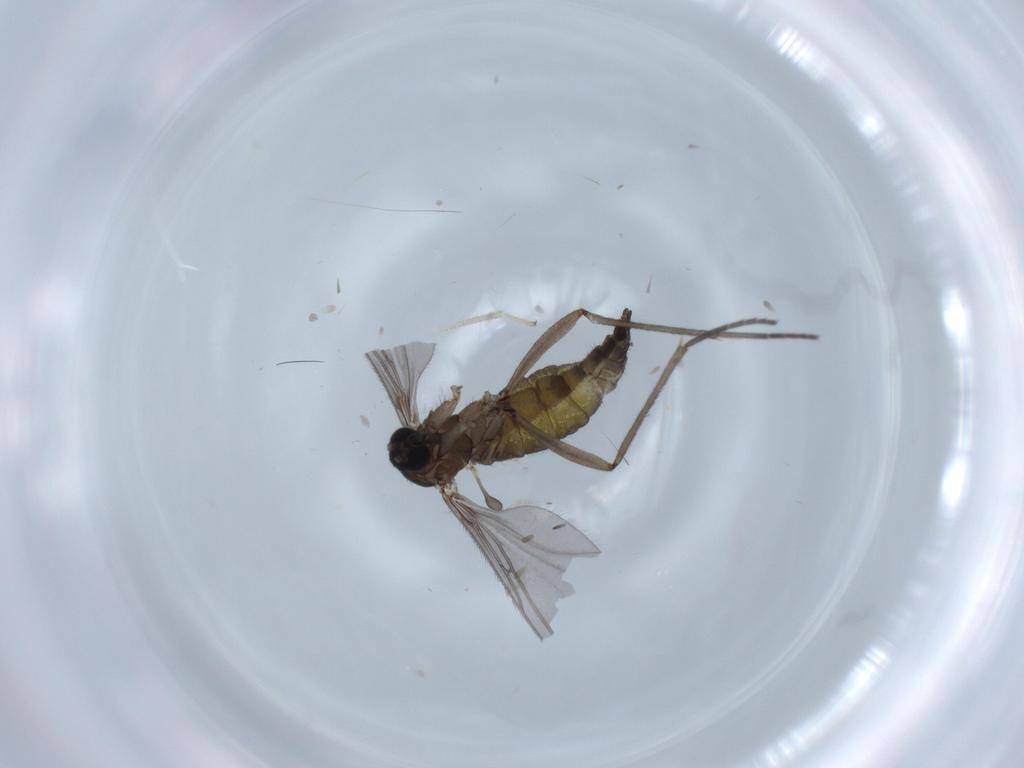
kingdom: Animalia
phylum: Arthropoda
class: Insecta
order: Diptera
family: Sciaridae
